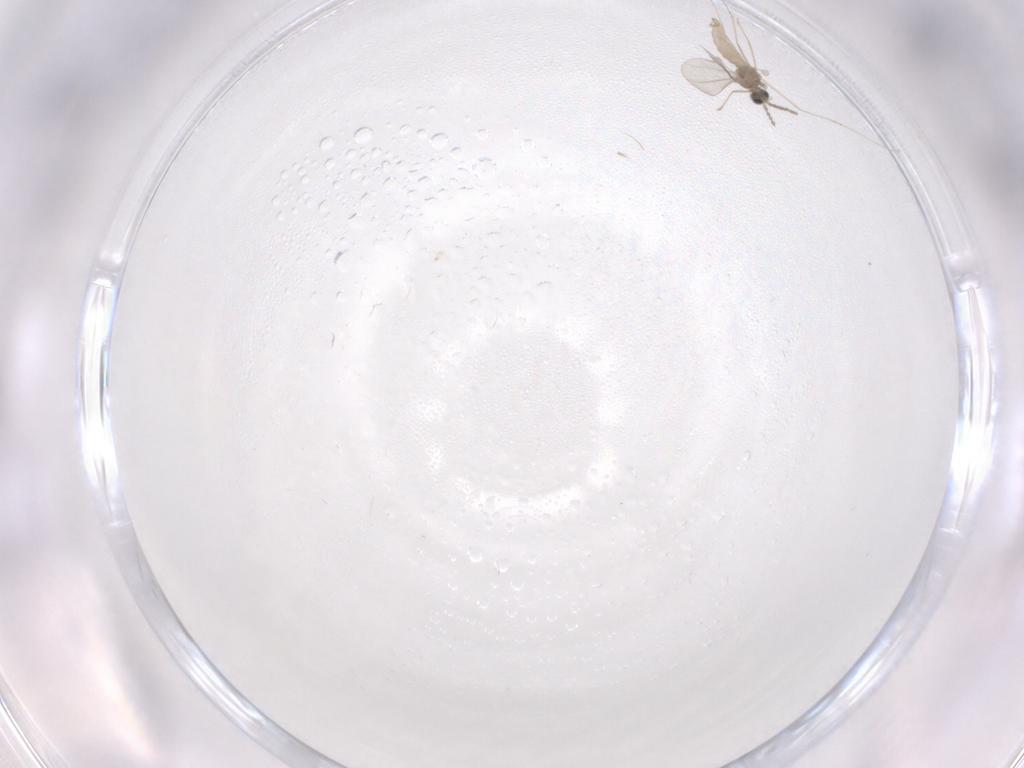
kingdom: Animalia
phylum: Arthropoda
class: Insecta
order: Diptera
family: Cecidomyiidae
